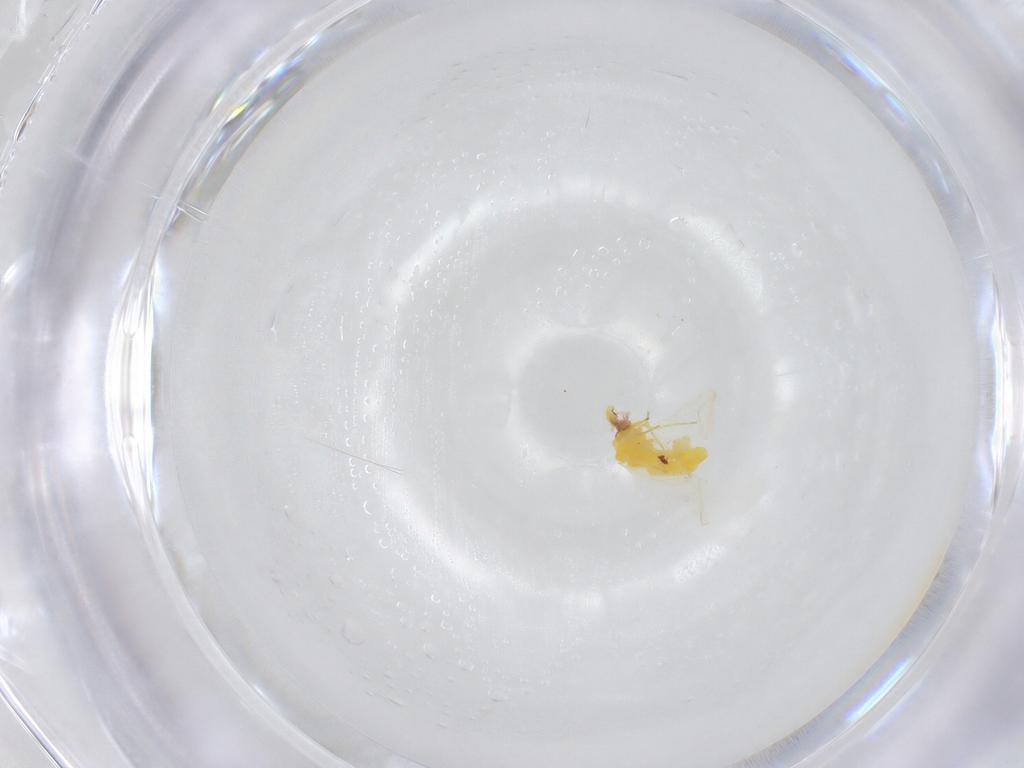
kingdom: Animalia
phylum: Arthropoda
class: Insecta
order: Hemiptera
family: Aleyrodidae
